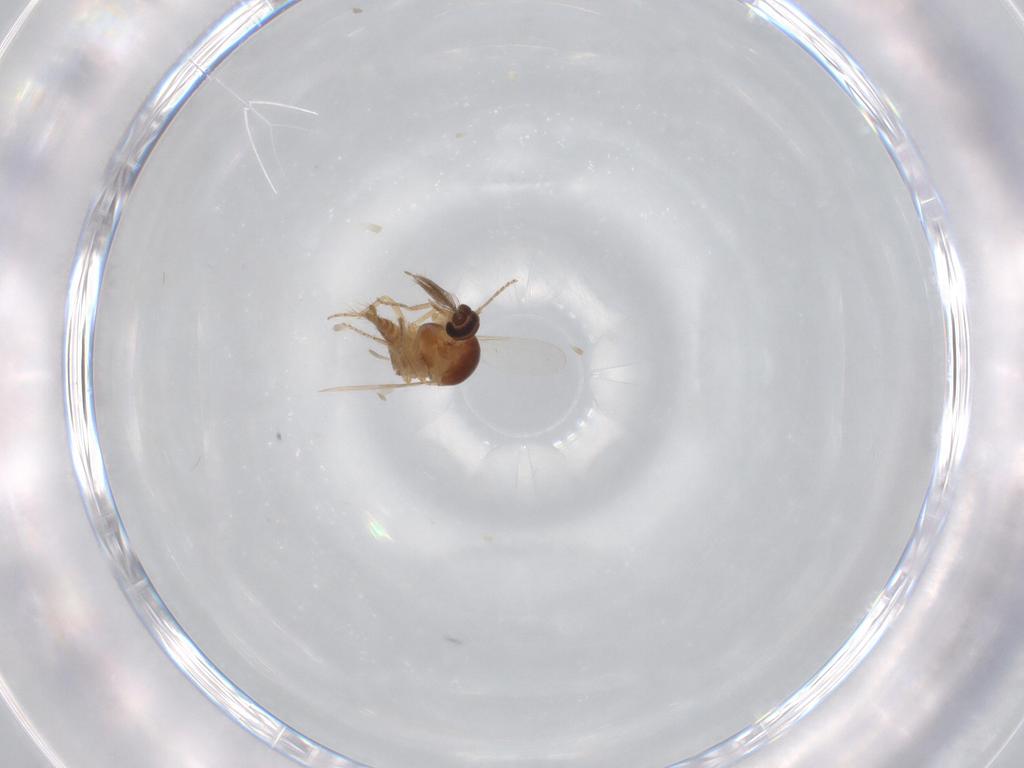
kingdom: Animalia
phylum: Arthropoda
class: Insecta
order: Diptera
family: Ceratopogonidae
